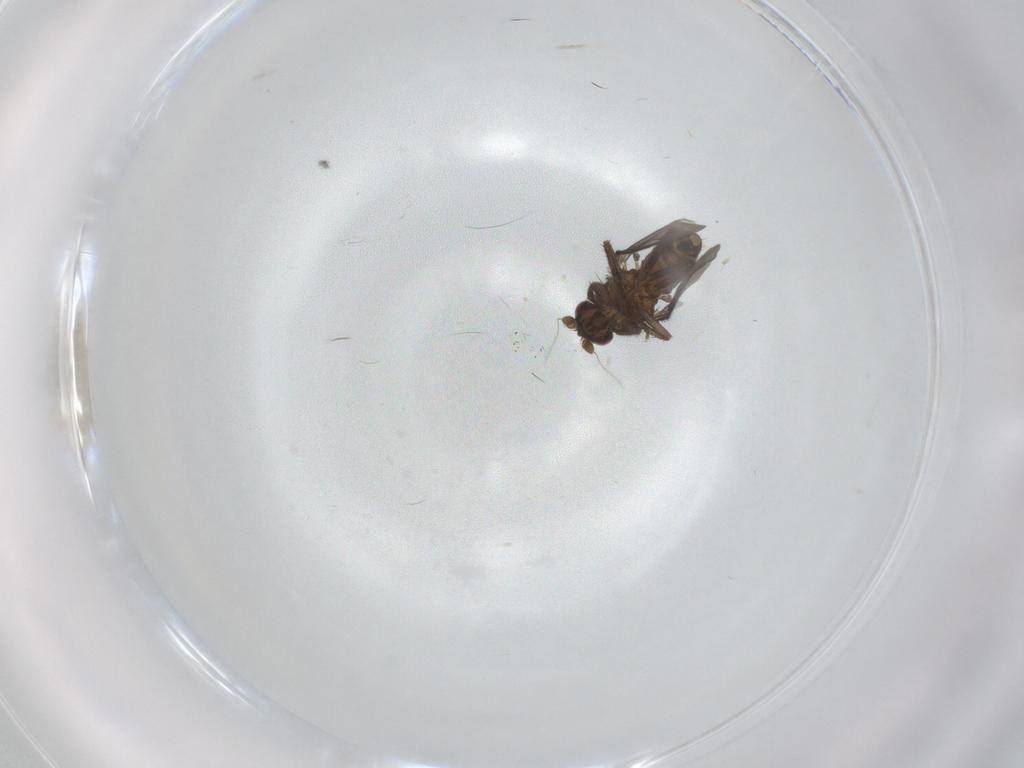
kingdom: Animalia
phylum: Arthropoda
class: Insecta
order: Diptera
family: Sphaeroceridae
